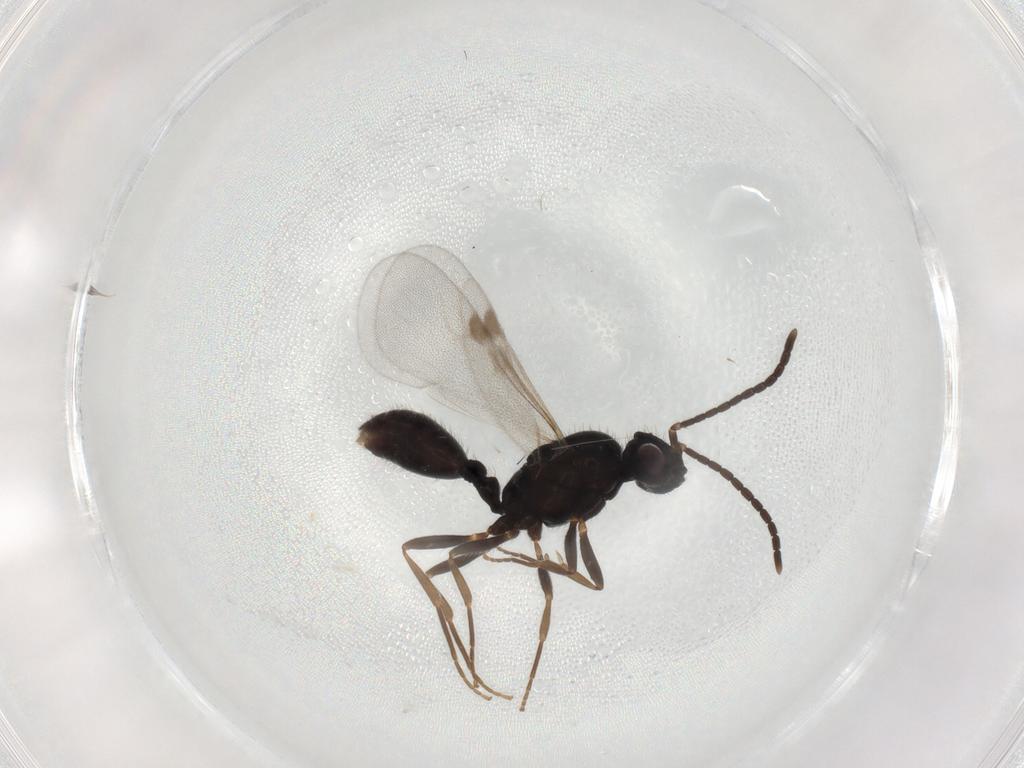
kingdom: Animalia
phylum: Arthropoda
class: Insecta
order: Hymenoptera
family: Formicidae
